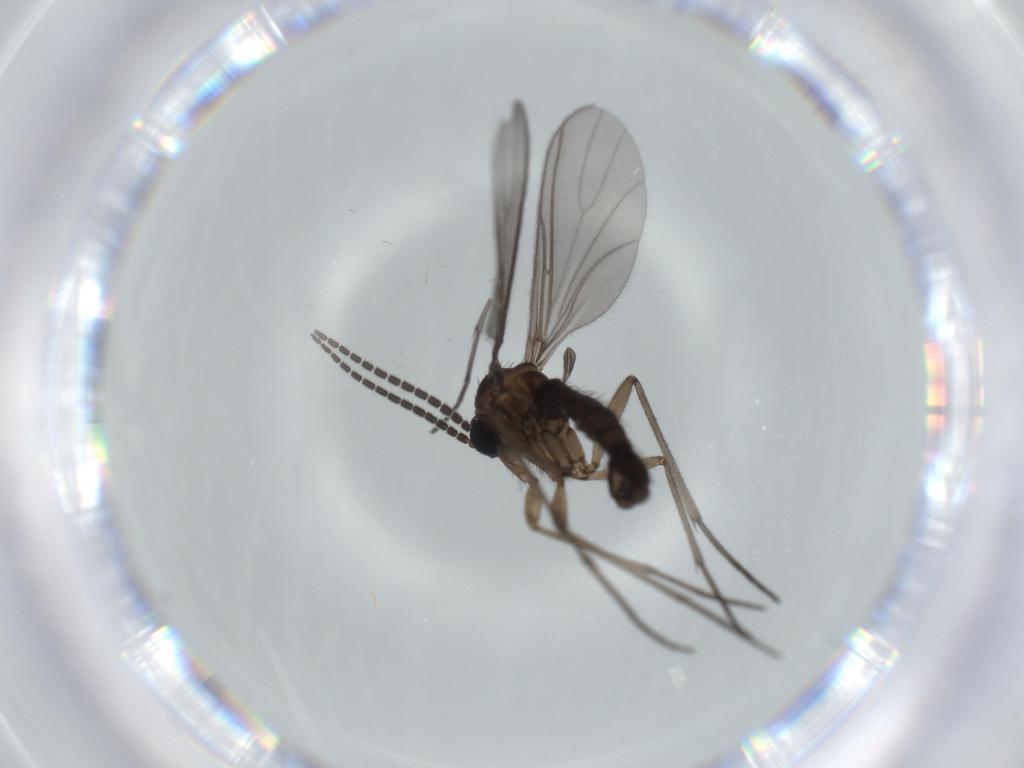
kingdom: Animalia
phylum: Arthropoda
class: Insecta
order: Diptera
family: Sciaridae
